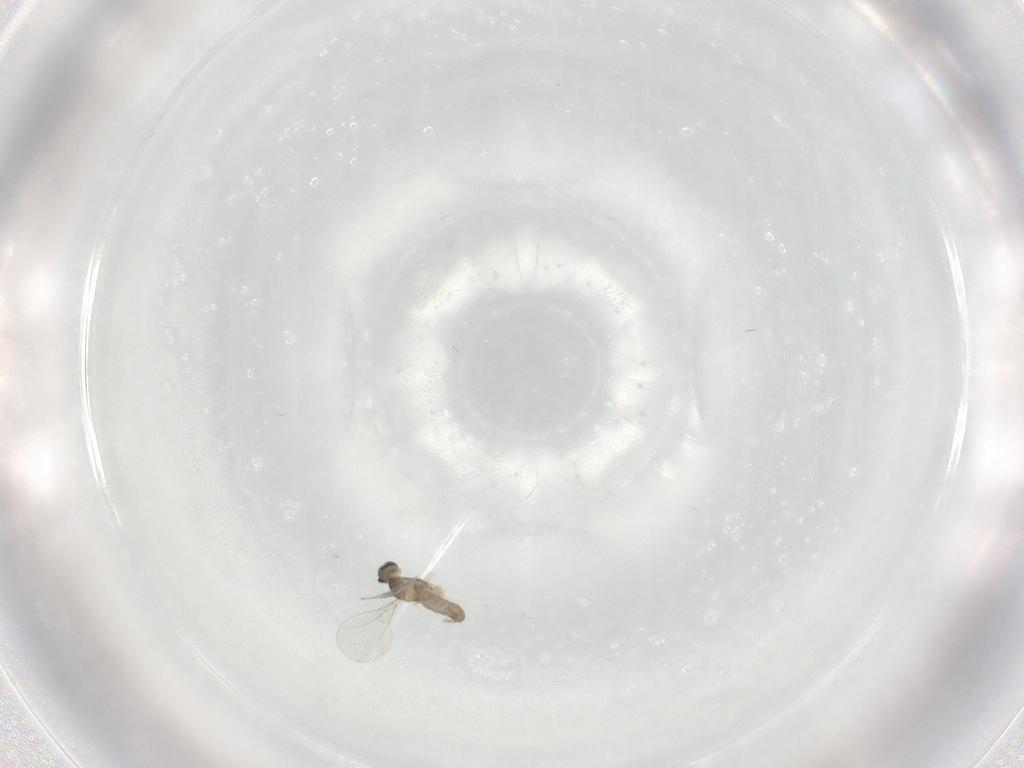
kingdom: Animalia
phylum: Arthropoda
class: Insecta
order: Diptera
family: Cecidomyiidae
